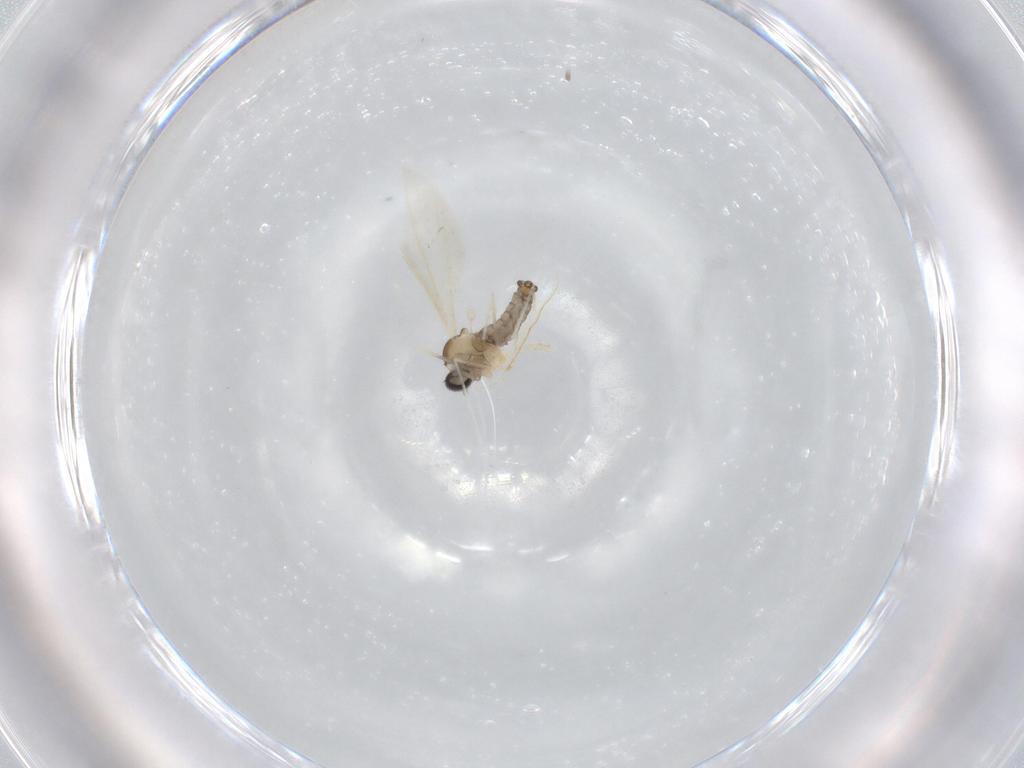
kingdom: Animalia
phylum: Arthropoda
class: Insecta
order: Diptera
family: Cecidomyiidae
